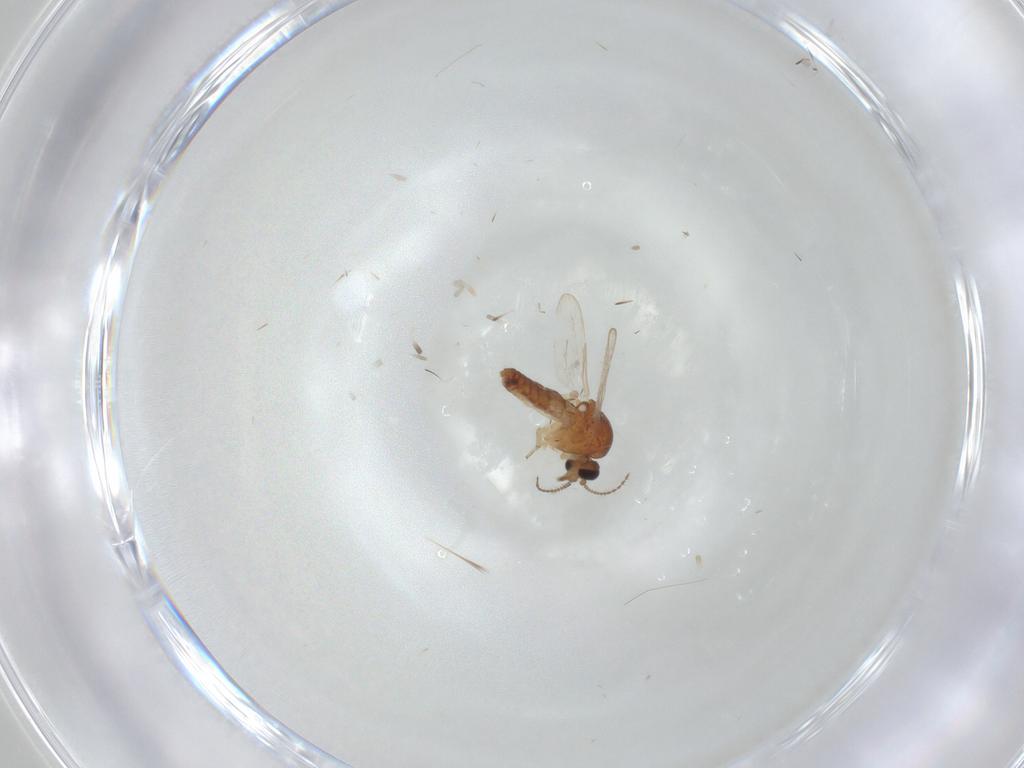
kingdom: Animalia
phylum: Arthropoda
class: Insecta
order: Diptera
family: Ceratopogonidae
